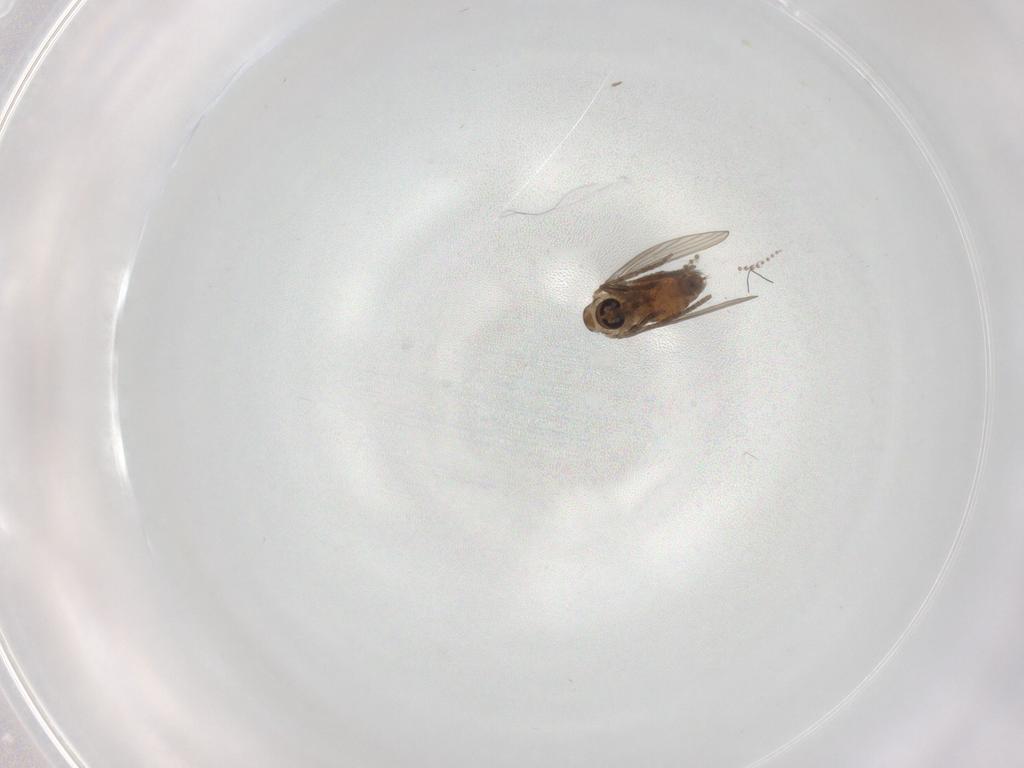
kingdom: Animalia
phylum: Arthropoda
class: Insecta
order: Diptera
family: Psychodidae
